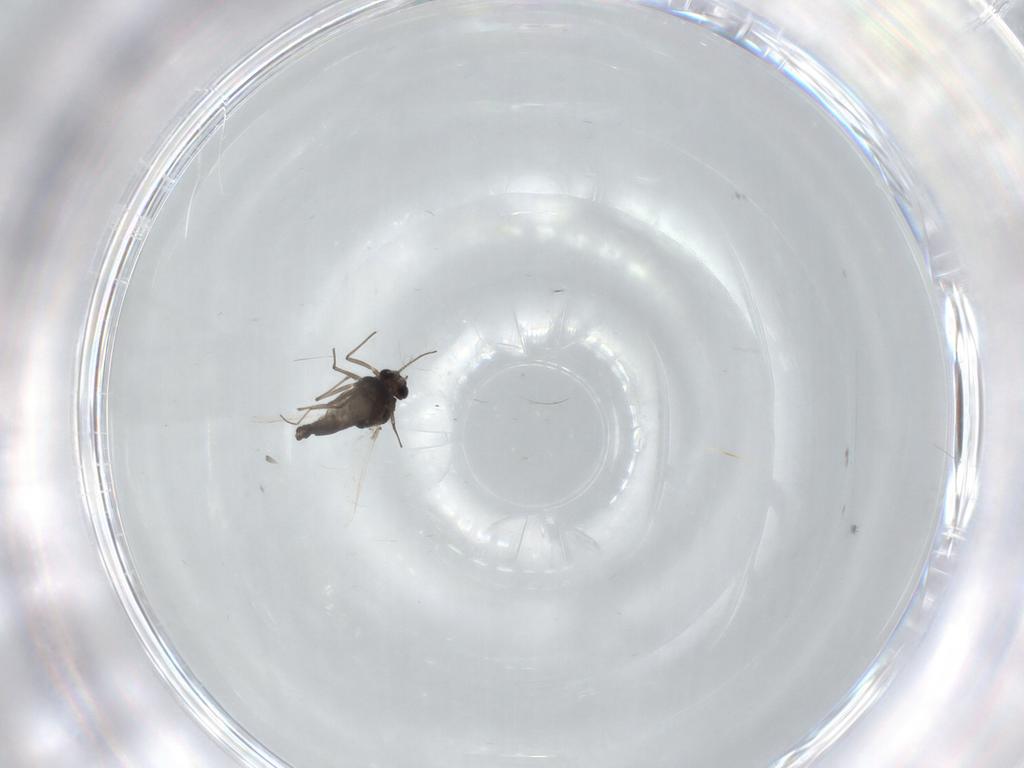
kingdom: Animalia
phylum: Arthropoda
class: Insecta
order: Diptera
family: Chironomidae
